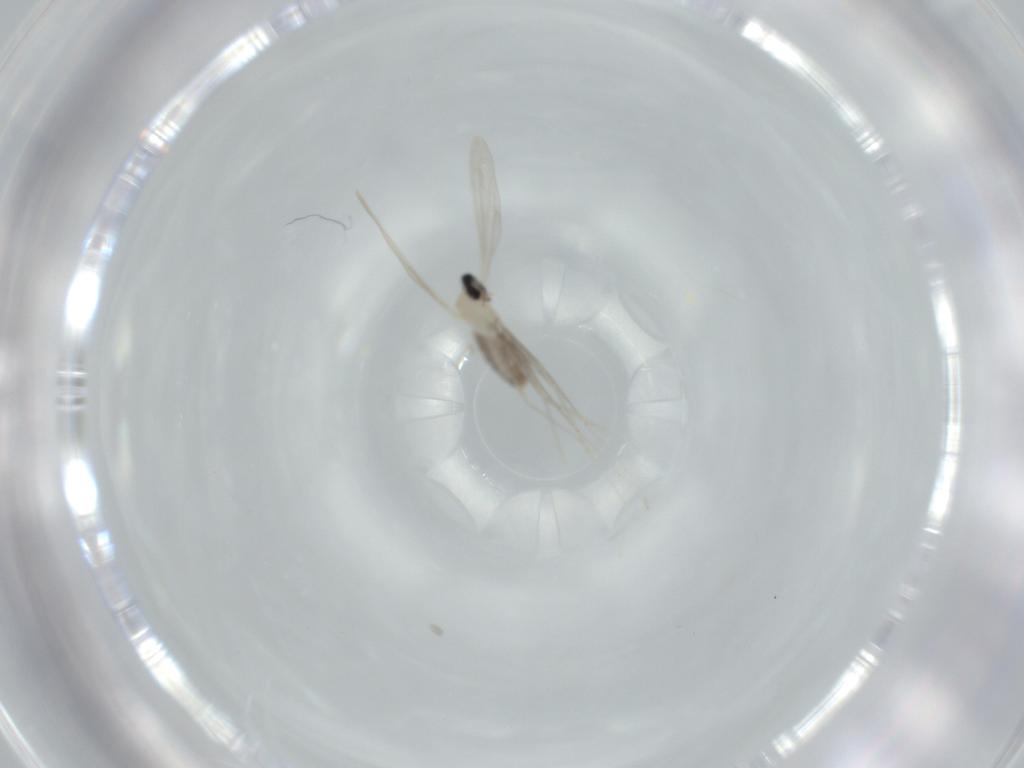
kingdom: Animalia
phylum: Arthropoda
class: Insecta
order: Diptera
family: Cecidomyiidae
